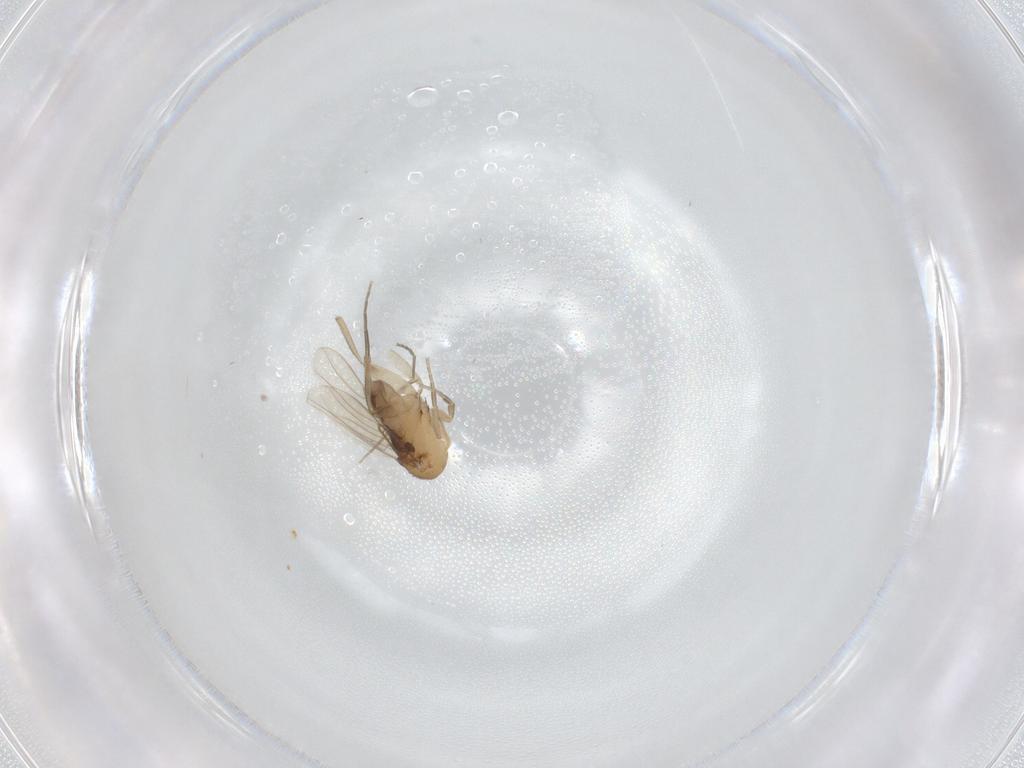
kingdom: Animalia
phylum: Arthropoda
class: Insecta
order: Diptera
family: Phoridae
